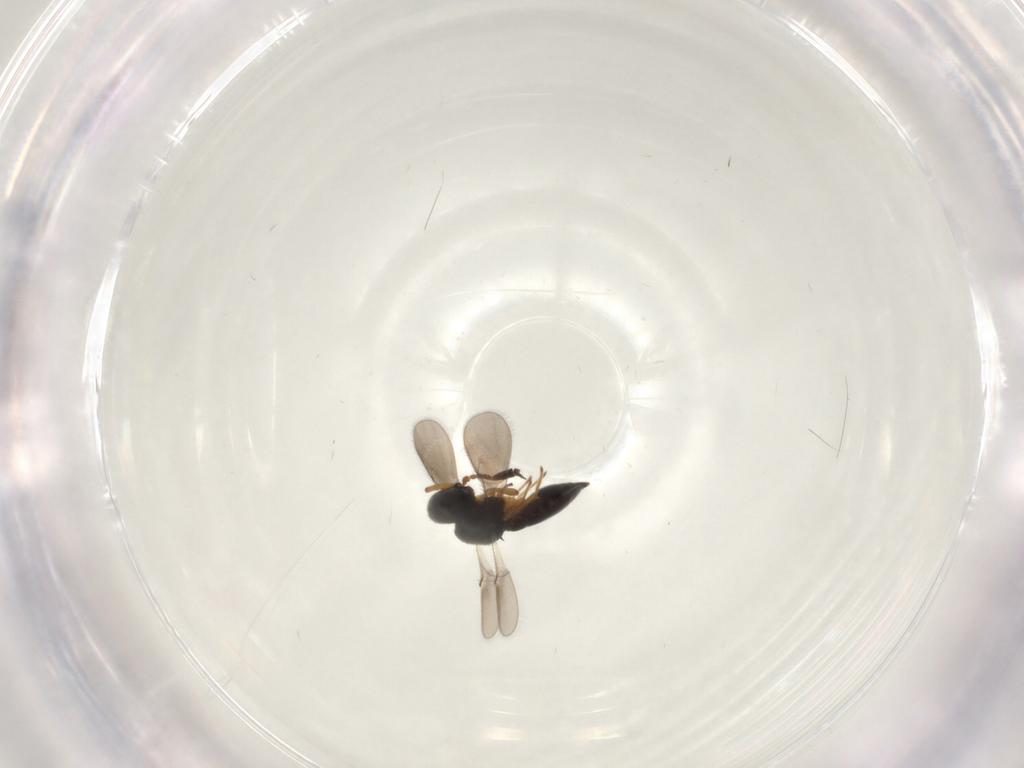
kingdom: Animalia
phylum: Arthropoda
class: Insecta
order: Hymenoptera
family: Scelionidae
